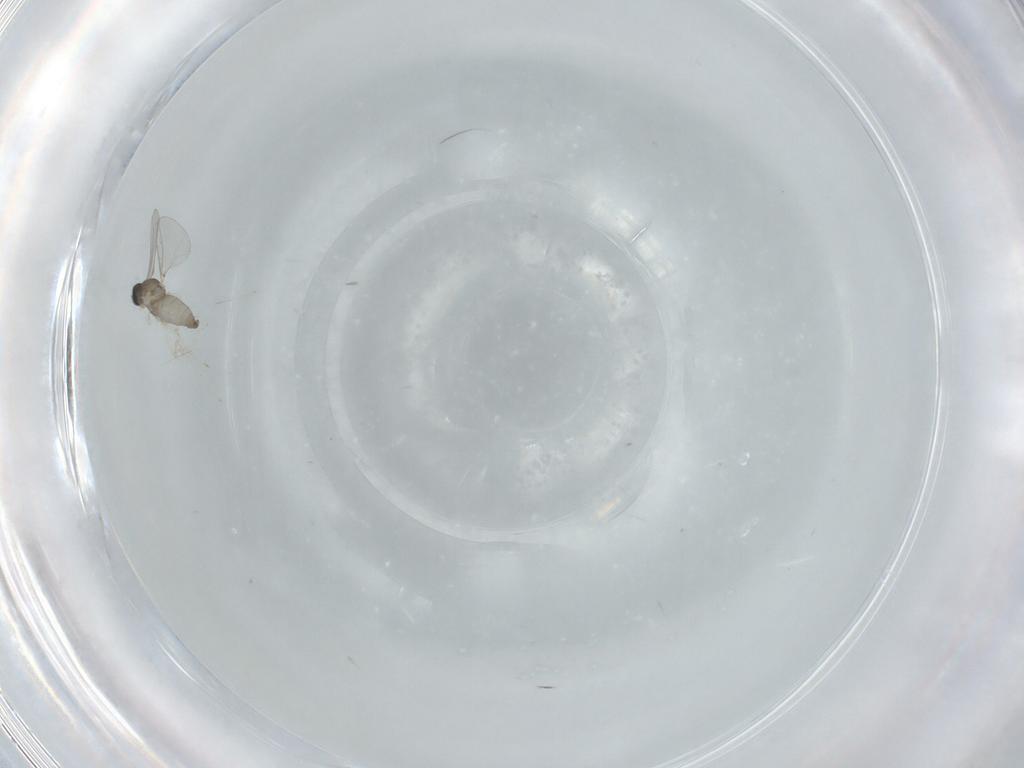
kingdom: Animalia
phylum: Arthropoda
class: Insecta
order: Diptera
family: Cecidomyiidae
